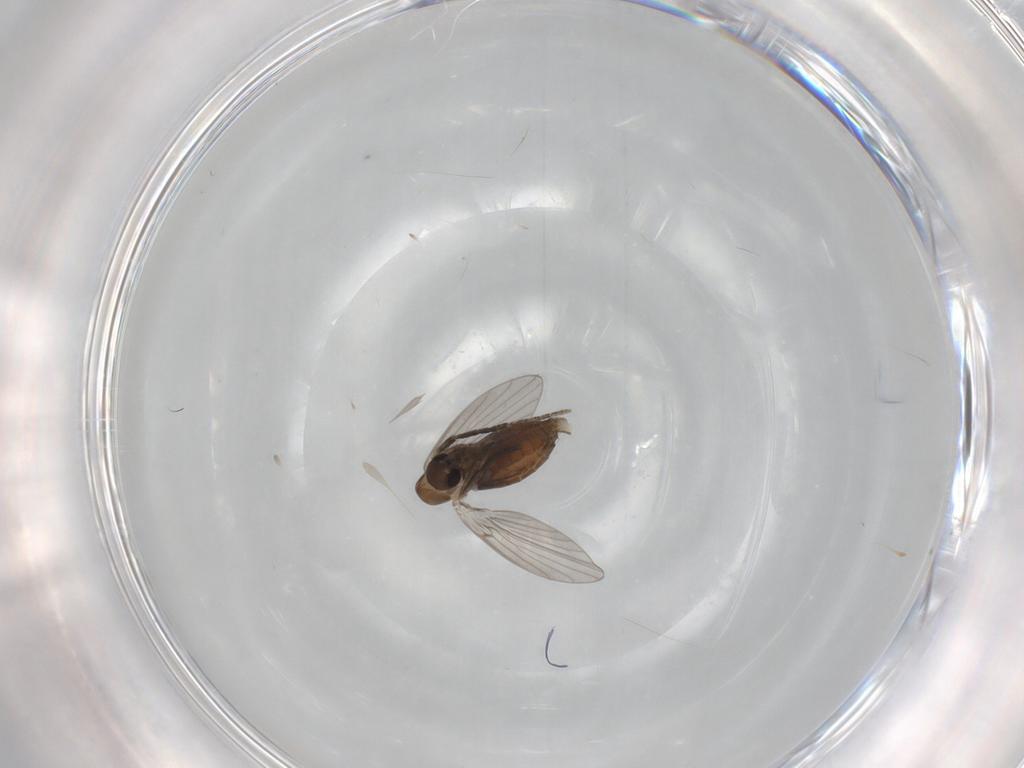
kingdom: Animalia
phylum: Arthropoda
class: Insecta
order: Diptera
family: Psychodidae
